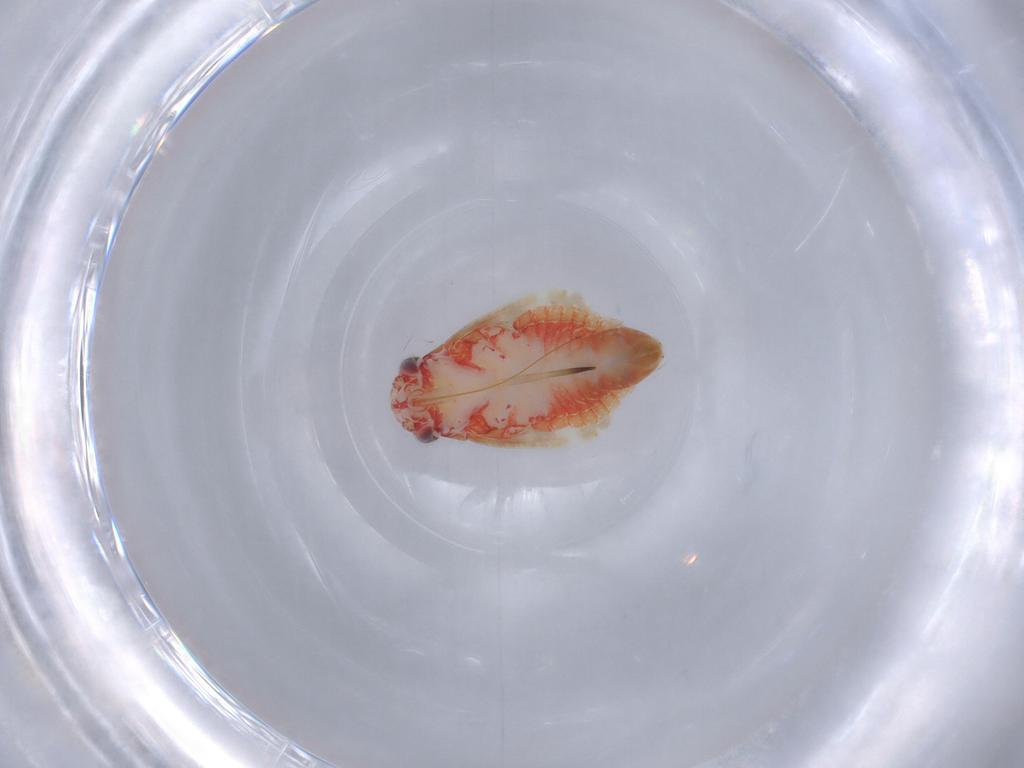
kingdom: Animalia
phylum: Arthropoda
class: Insecta
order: Hemiptera
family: Miridae
